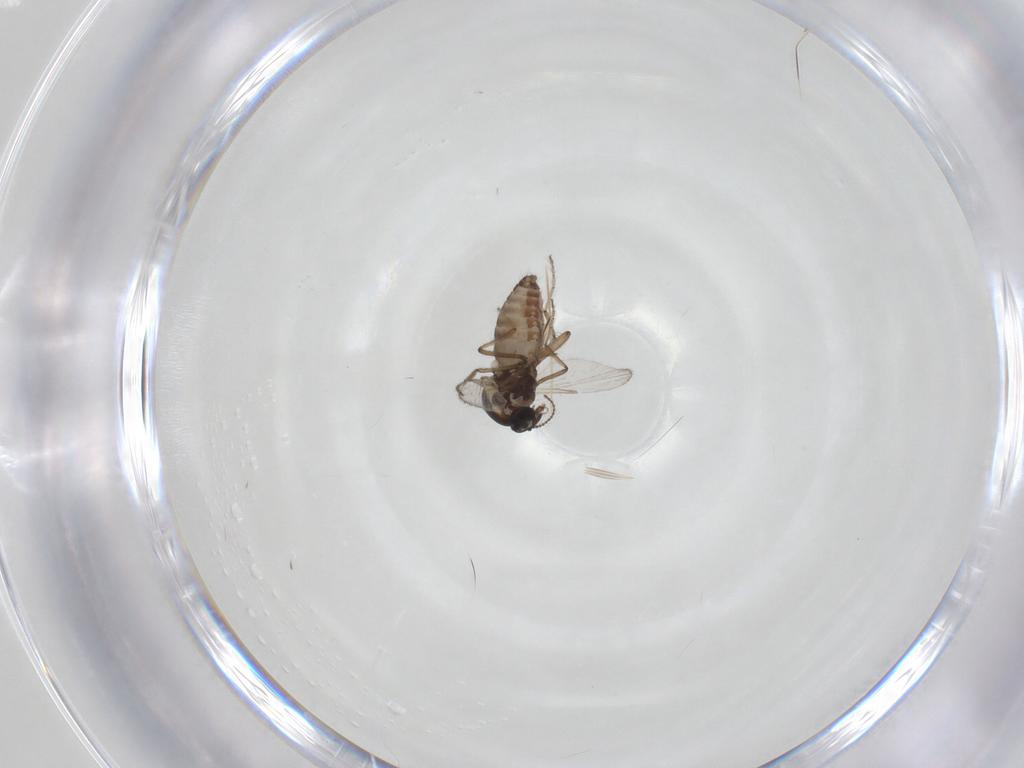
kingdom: Animalia
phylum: Arthropoda
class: Insecta
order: Diptera
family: Ceratopogonidae
